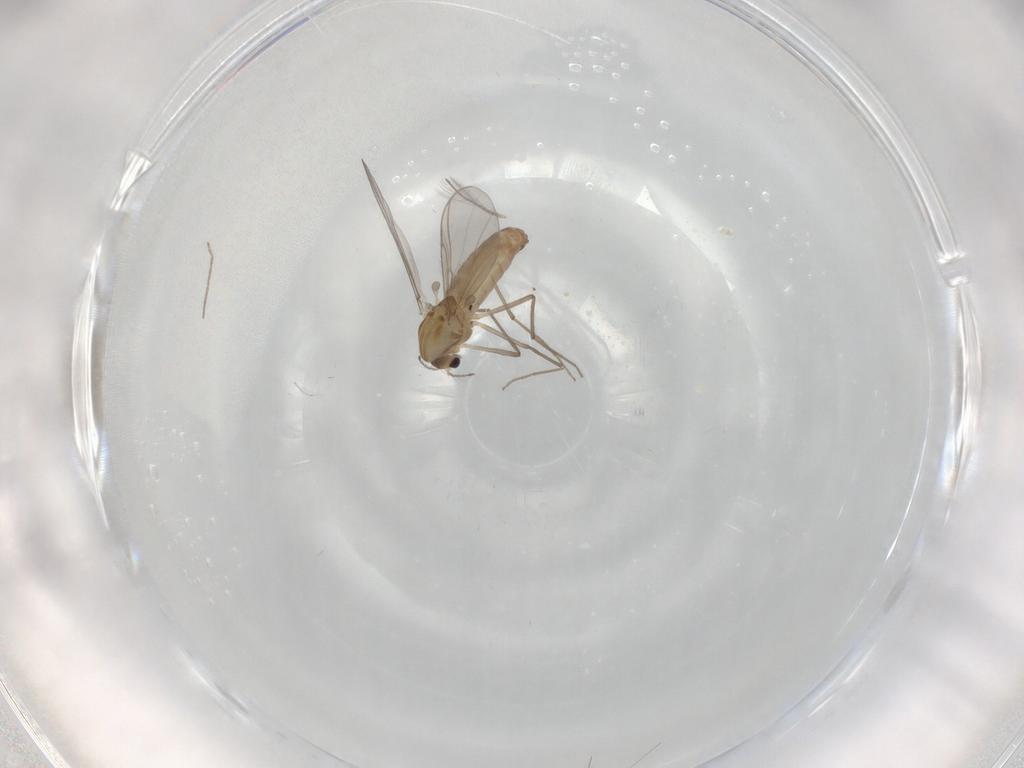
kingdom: Animalia
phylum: Arthropoda
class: Insecta
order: Diptera
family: Chironomidae
